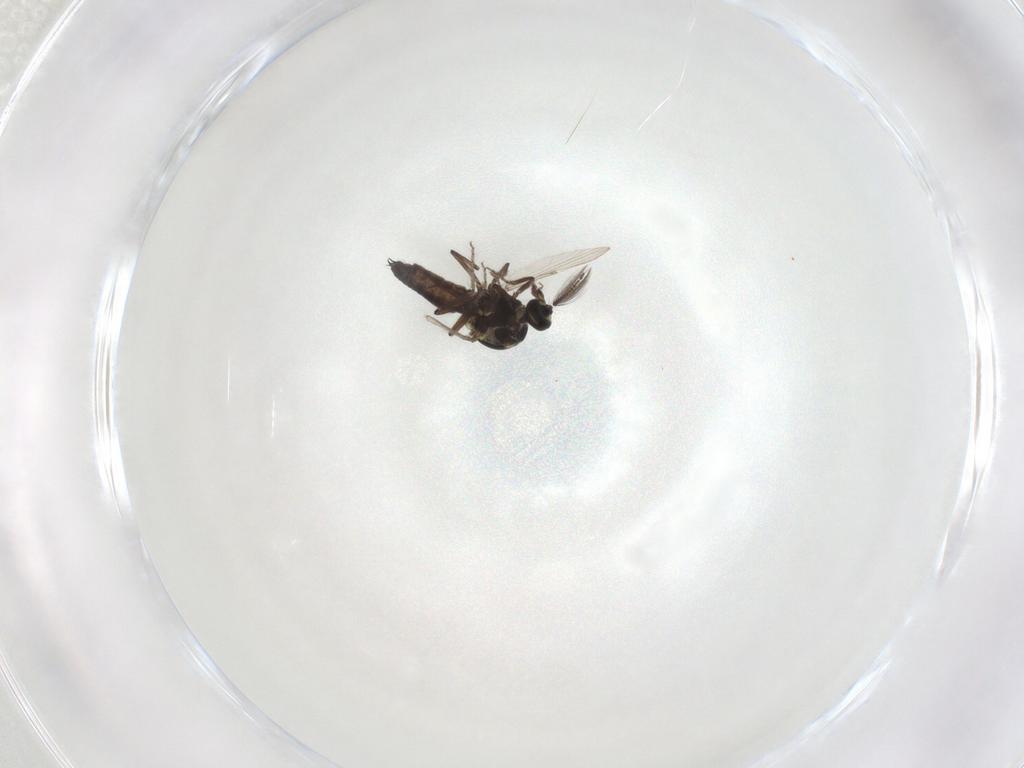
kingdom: Animalia
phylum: Arthropoda
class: Insecta
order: Diptera
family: Ceratopogonidae
